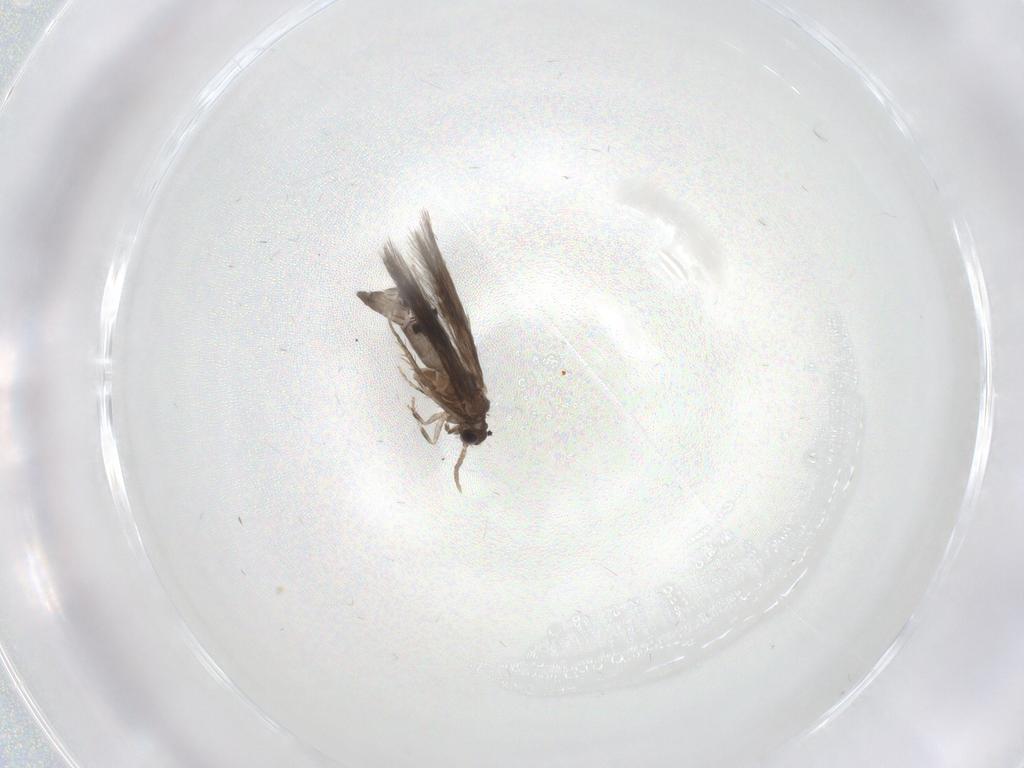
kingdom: Animalia
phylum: Arthropoda
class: Insecta
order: Trichoptera
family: Hydroptilidae
